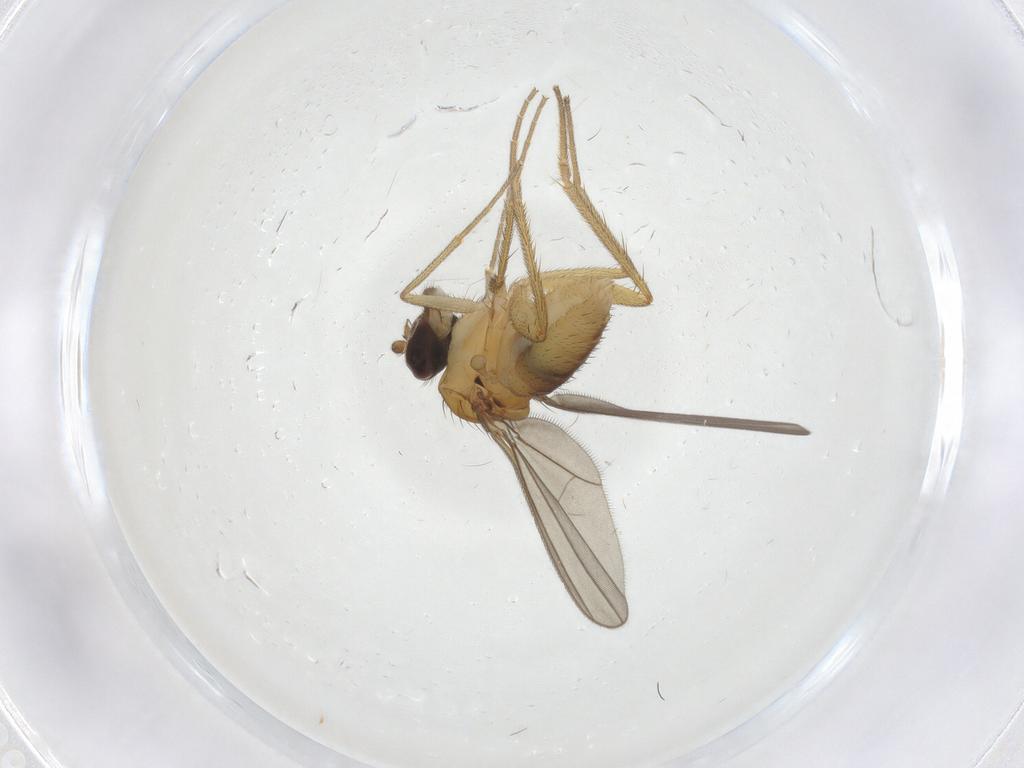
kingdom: Animalia
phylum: Arthropoda
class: Insecta
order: Diptera
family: Dolichopodidae
